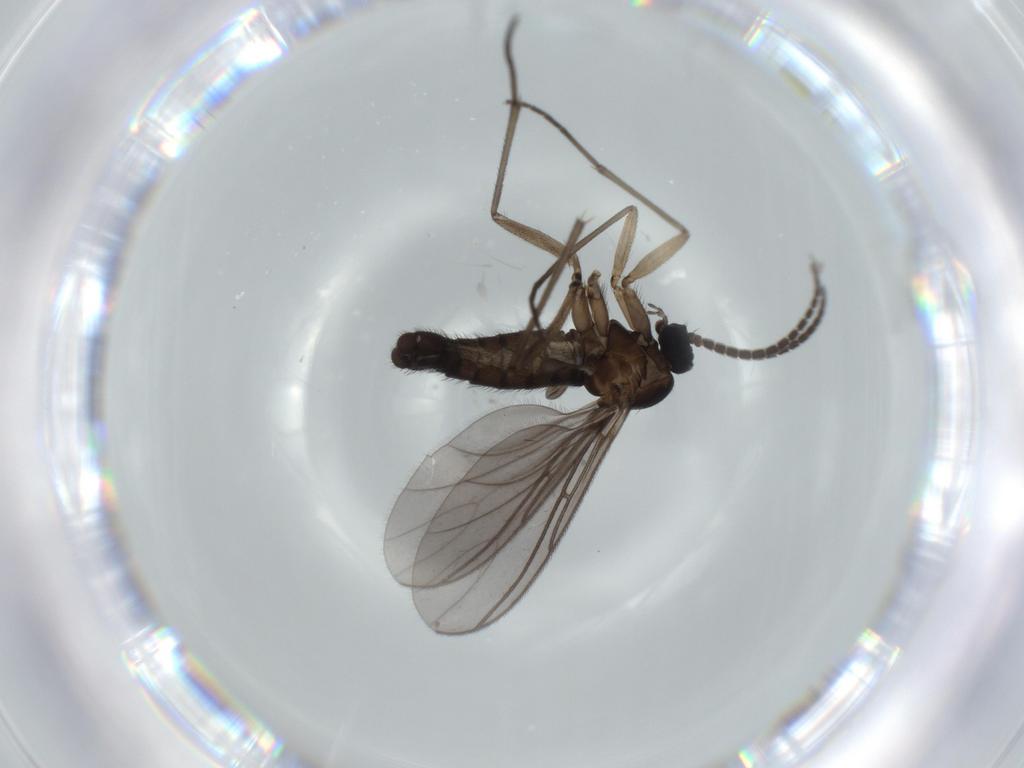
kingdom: Animalia
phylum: Arthropoda
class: Insecta
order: Diptera
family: Sciaridae
